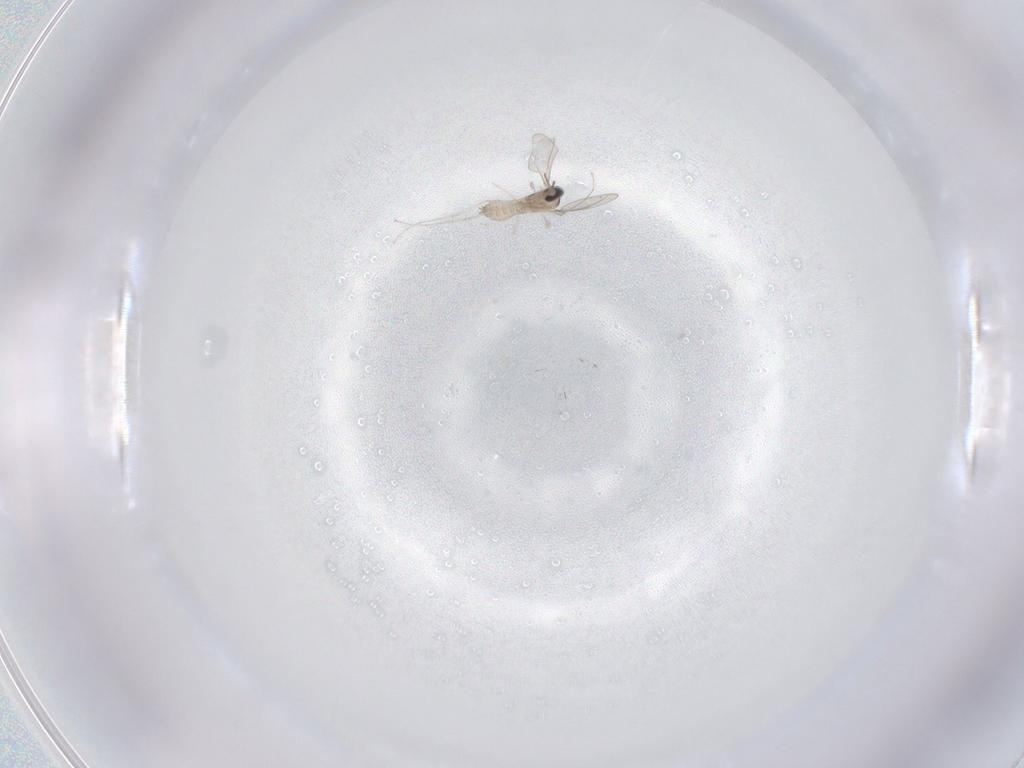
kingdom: Animalia
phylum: Arthropoda
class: Insecta
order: Diptera
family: Cecidomyiidae
